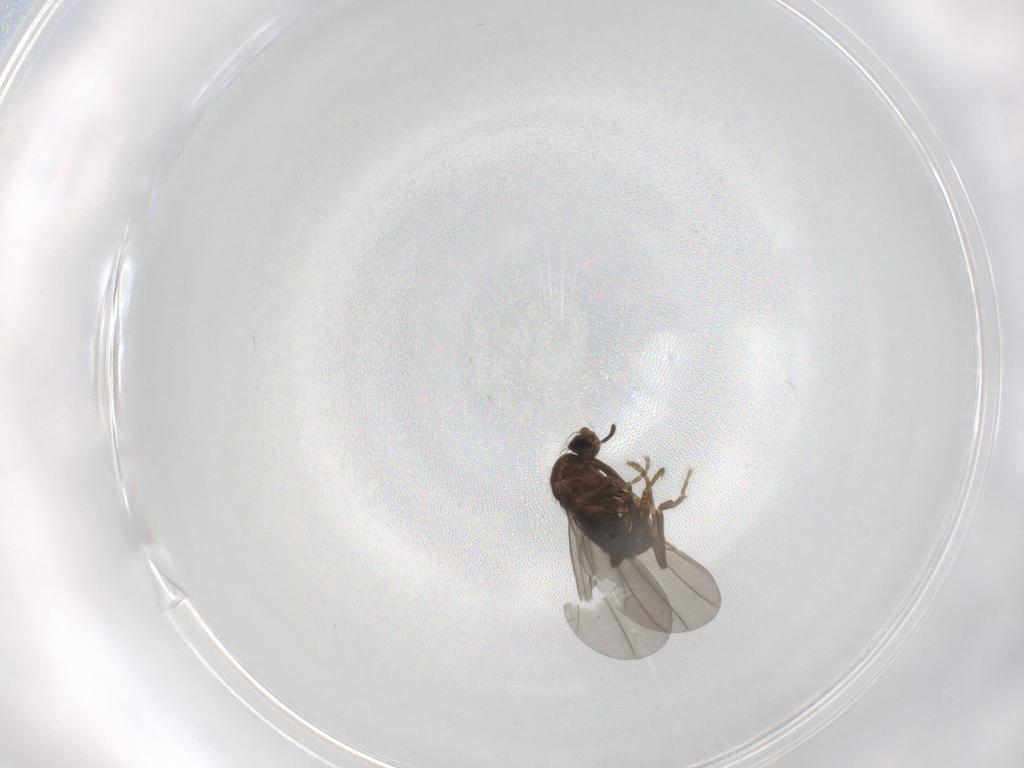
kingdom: Animalia
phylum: Arthropoda
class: Insecta
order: Diptera
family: Phoridae
